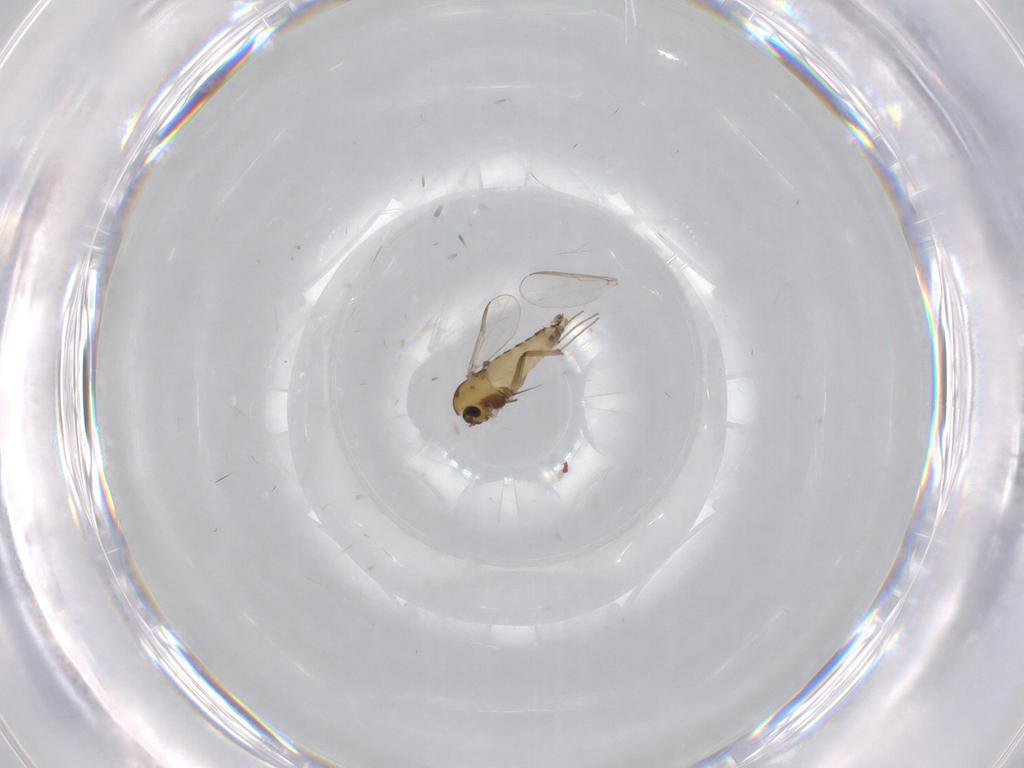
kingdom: Animalia
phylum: Arthropoda
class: Insecta
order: Diptera
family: Chironomidae
